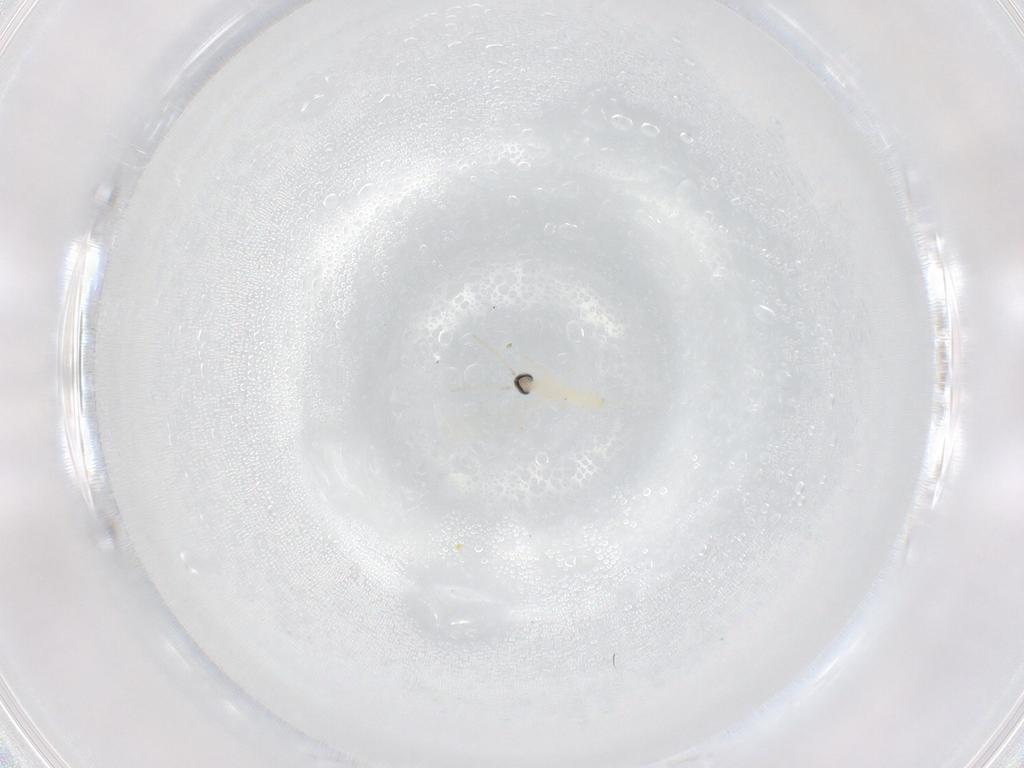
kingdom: Animalia
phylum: Arthropoda
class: Insecta
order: Diptera
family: Cecidomyiidae
